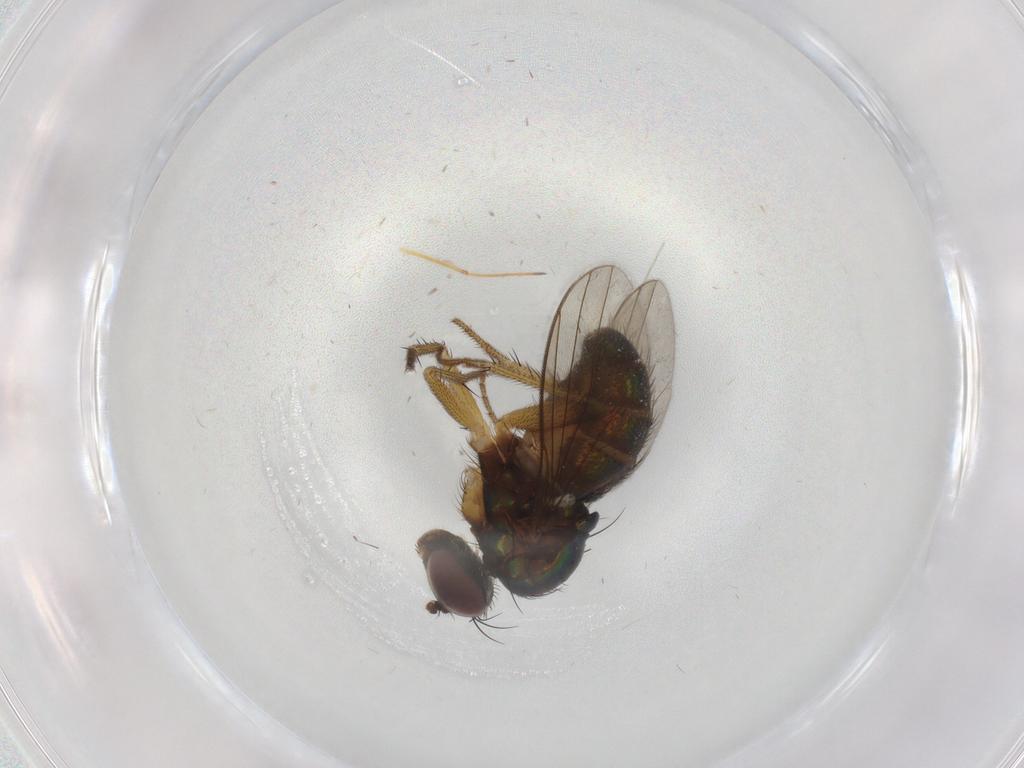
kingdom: Animalia
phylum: Arthropoda
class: Insecta
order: Diptera
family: Dolichopodidae
